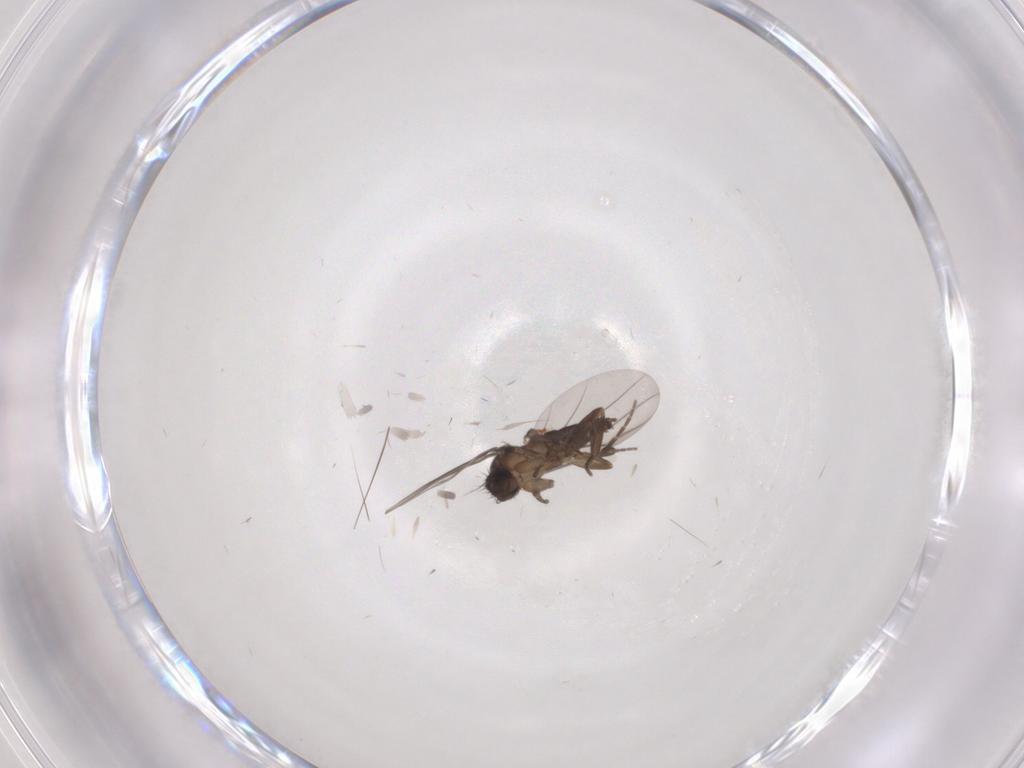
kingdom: Animalia
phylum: Arthropoda
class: Insecta
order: Diptera
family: Cecidomyiidae
